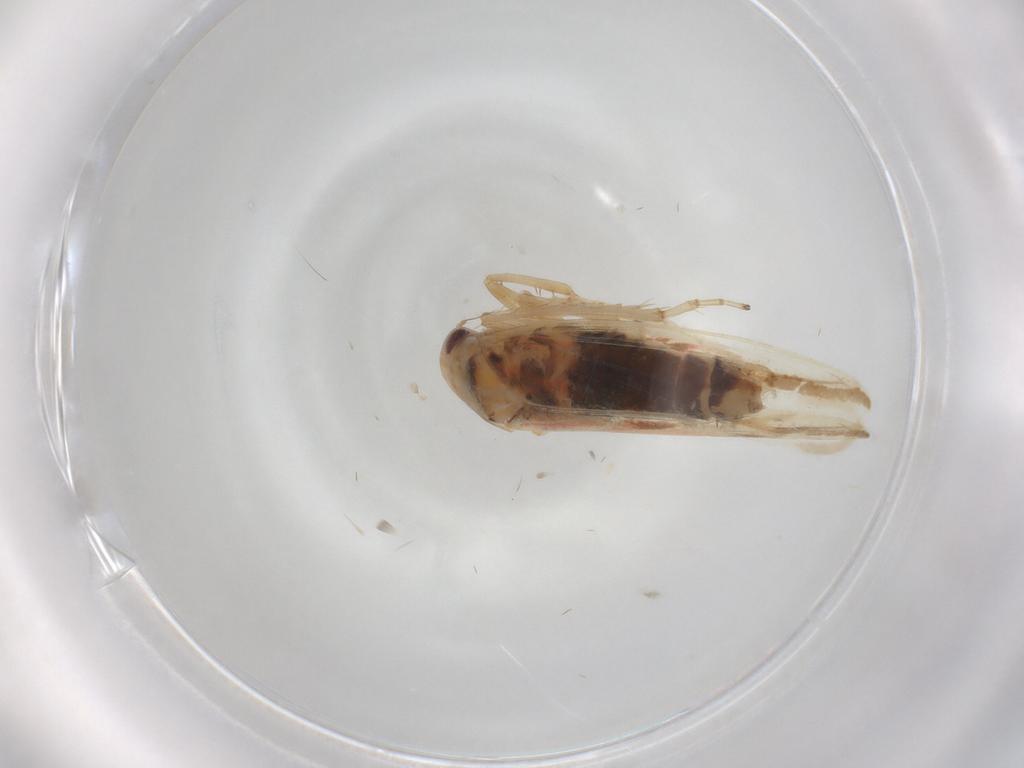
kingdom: Animalia
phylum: Arthropoda
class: Insecta
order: Hemiptera
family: Cicadellidae
